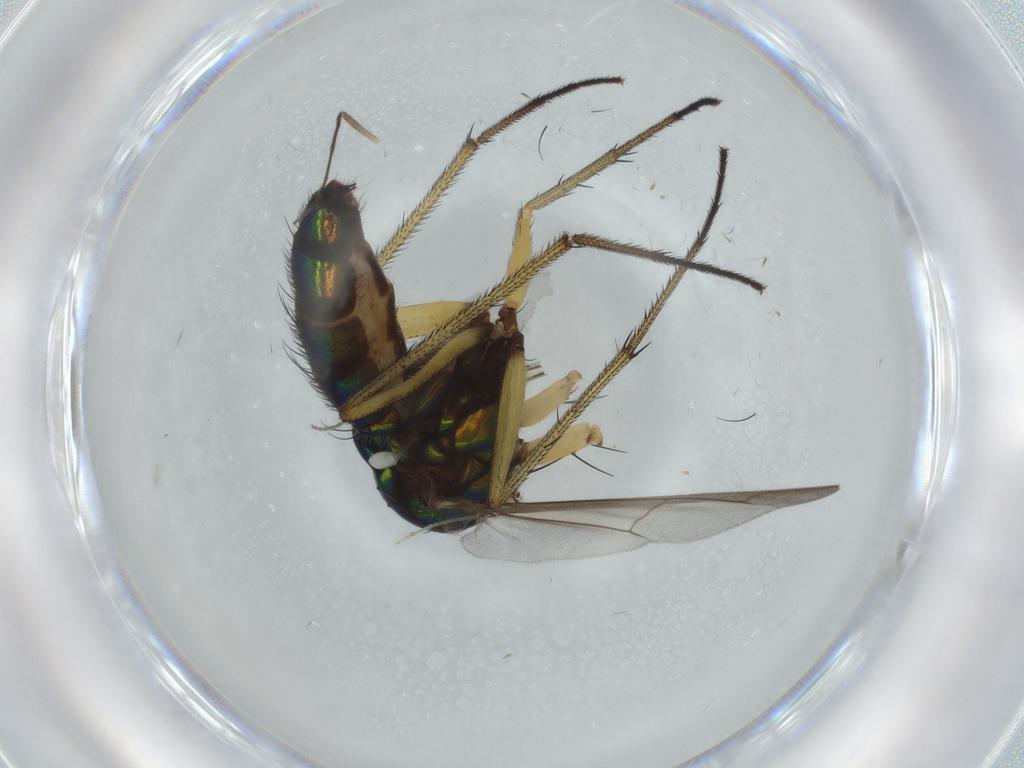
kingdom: Animalia
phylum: Arthropoda
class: Insecta
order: Diptera
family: Dolichopodidae
